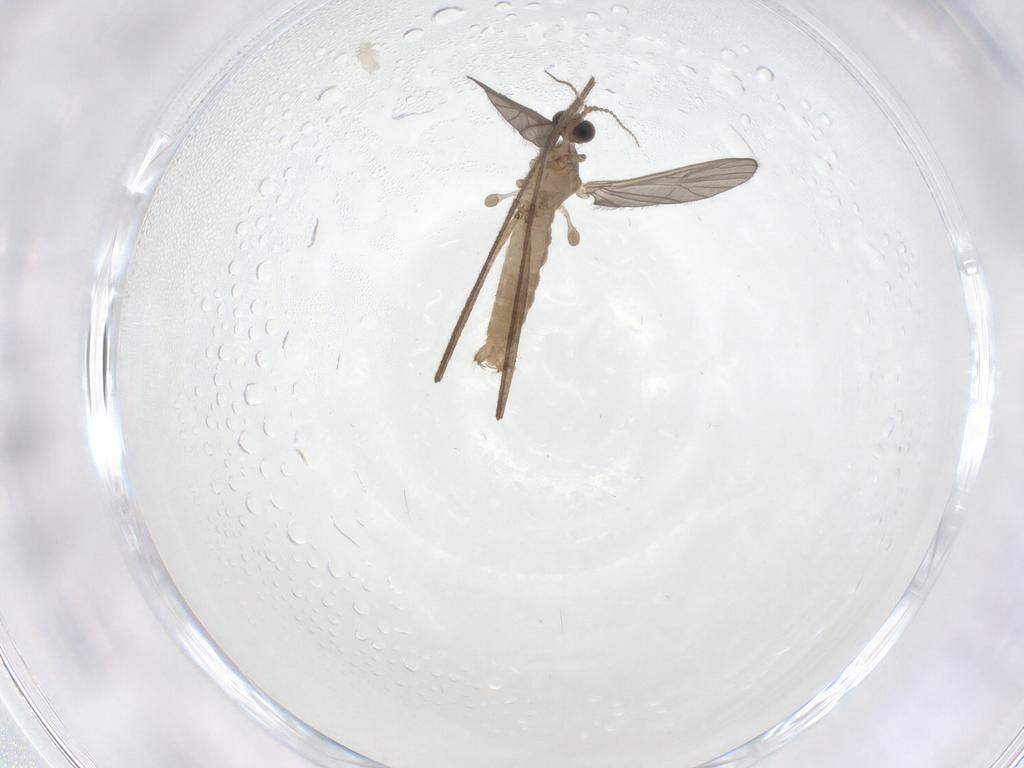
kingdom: Animalia
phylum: Arthropoda
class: Insecta
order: Diptera
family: Limoniidae
